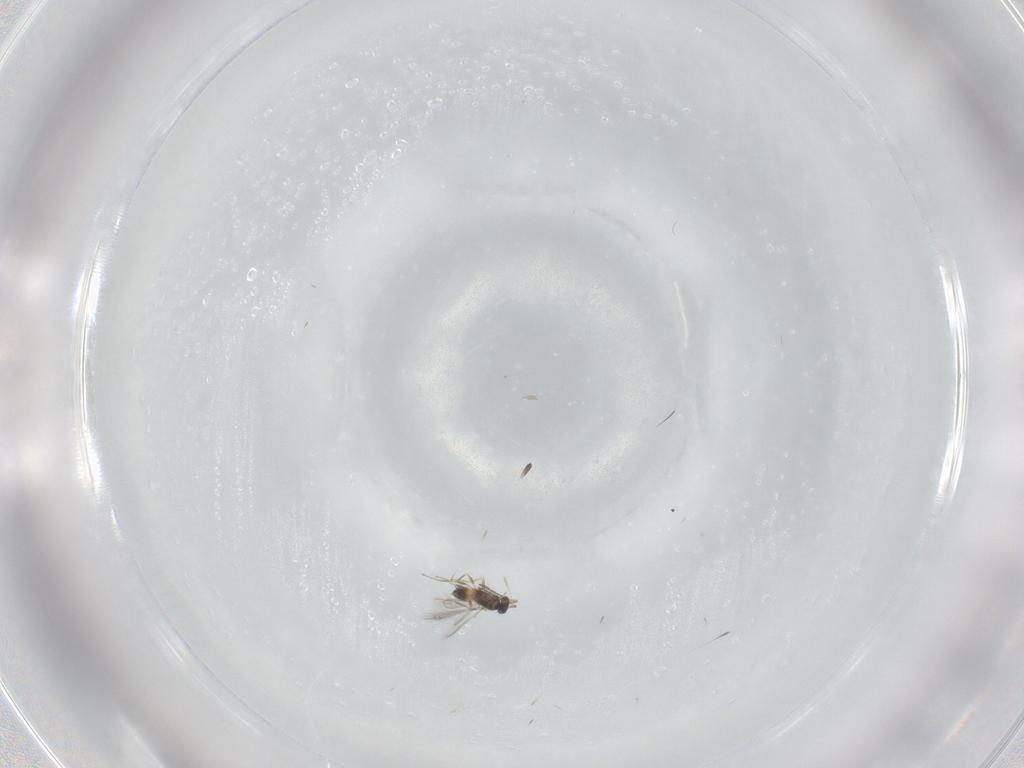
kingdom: Animalia
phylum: Arthropoda
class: Insecta
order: Hymenoptera
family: Mymaridae
